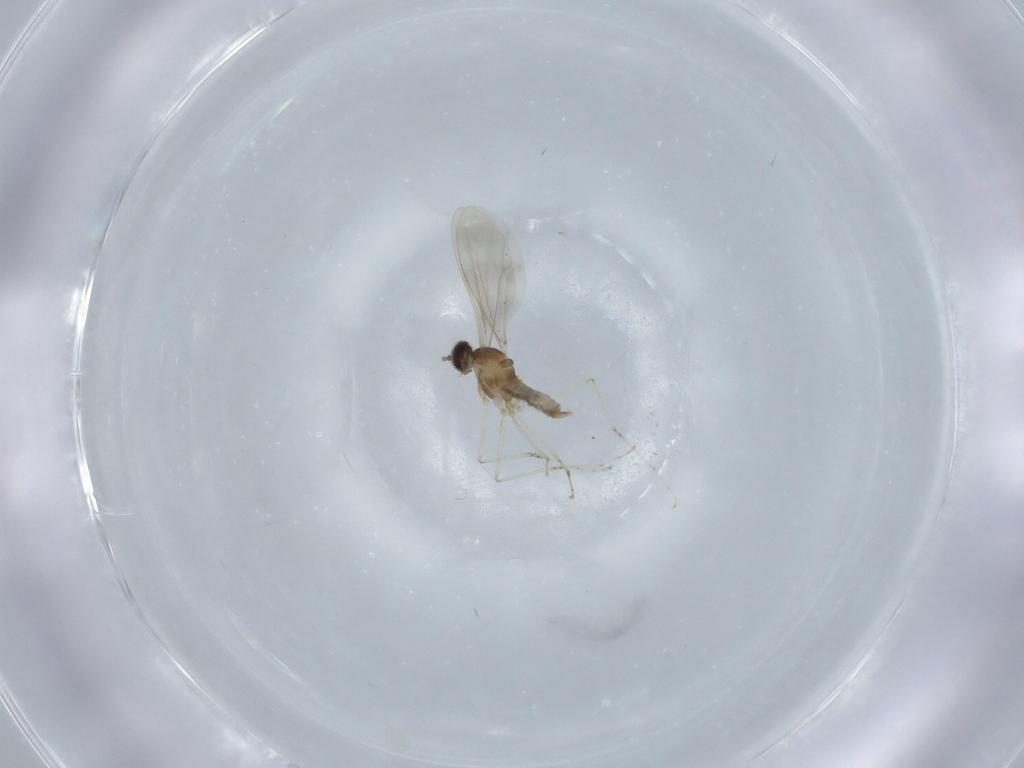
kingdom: Animalia
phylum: Arthropoda
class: Insecta
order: Diptera
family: Cecidomyiidae
